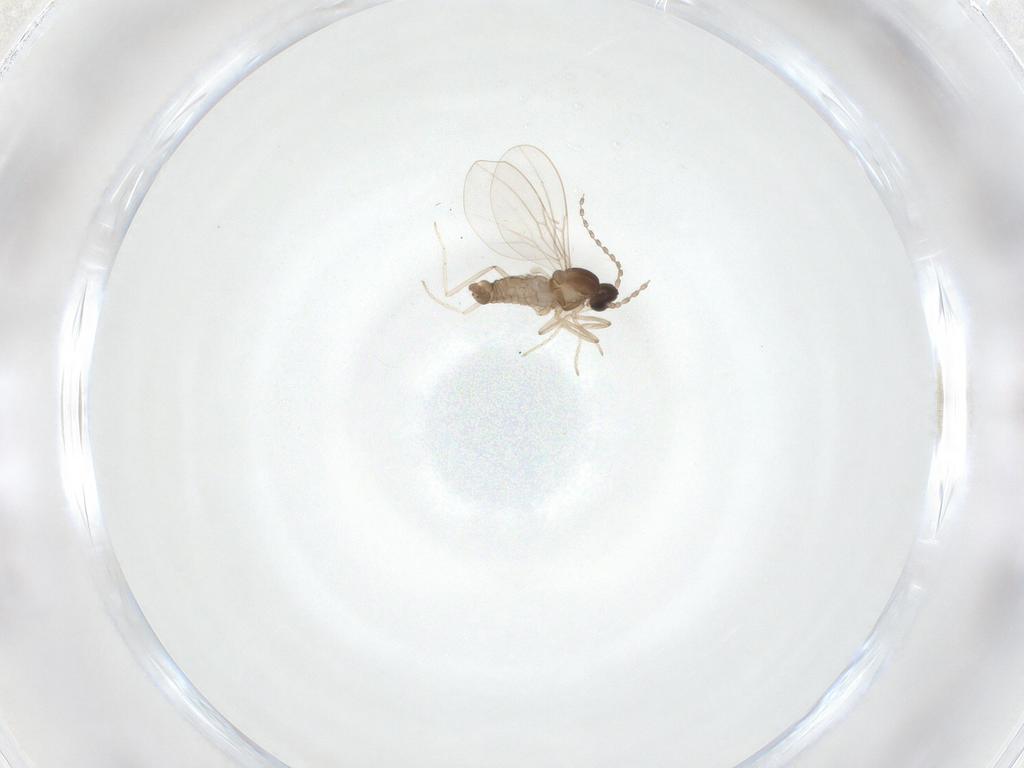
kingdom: Animalia
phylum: Arthropoda
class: Insecta
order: Diptera
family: Cecidomyiidae
